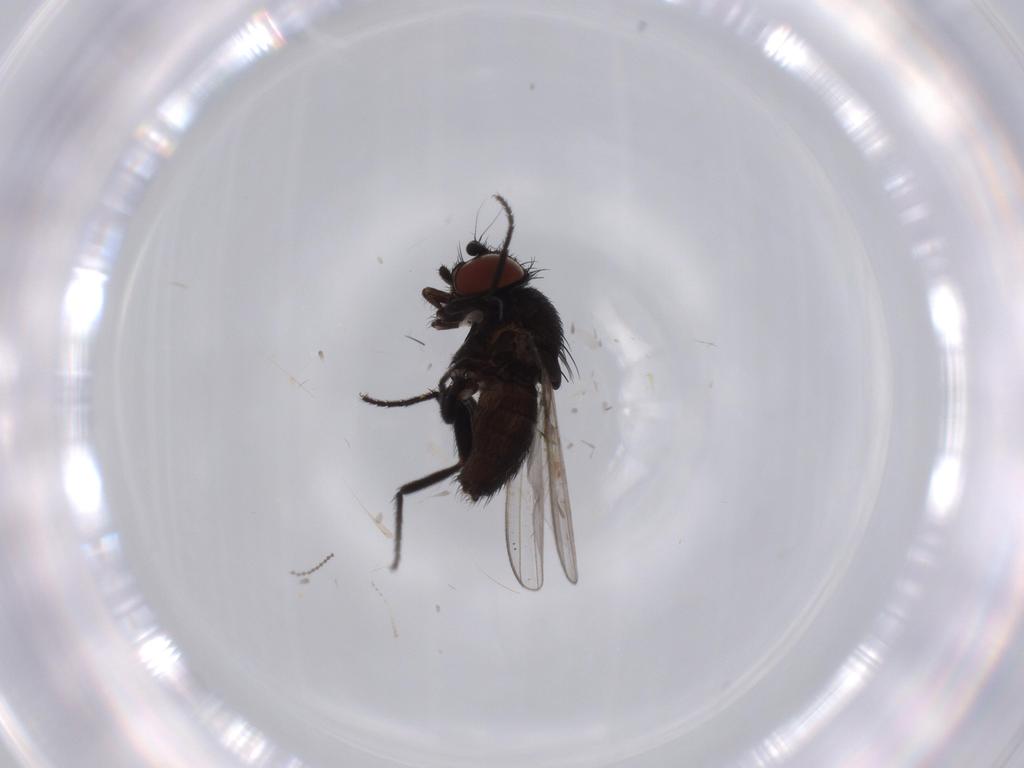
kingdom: Animalia
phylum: Arthropoda
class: Insecta
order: Diptera
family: Milichiidae
